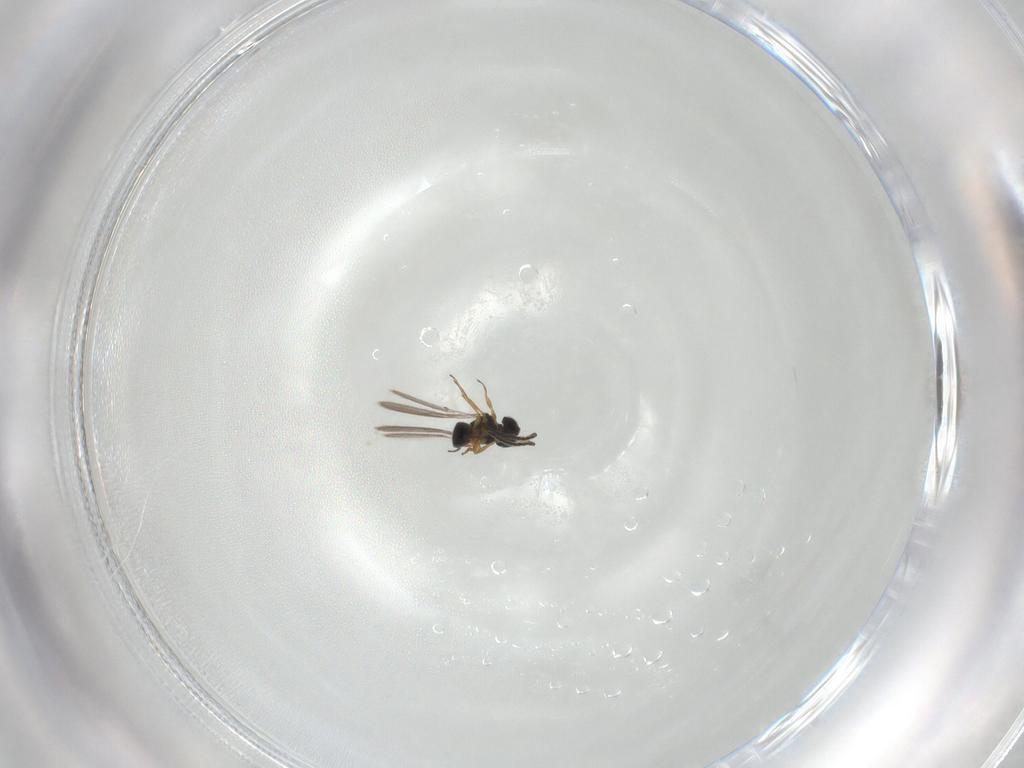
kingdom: Animalia
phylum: Arthropoda
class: Insecta
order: Hymenoptera
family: Scelionidae
